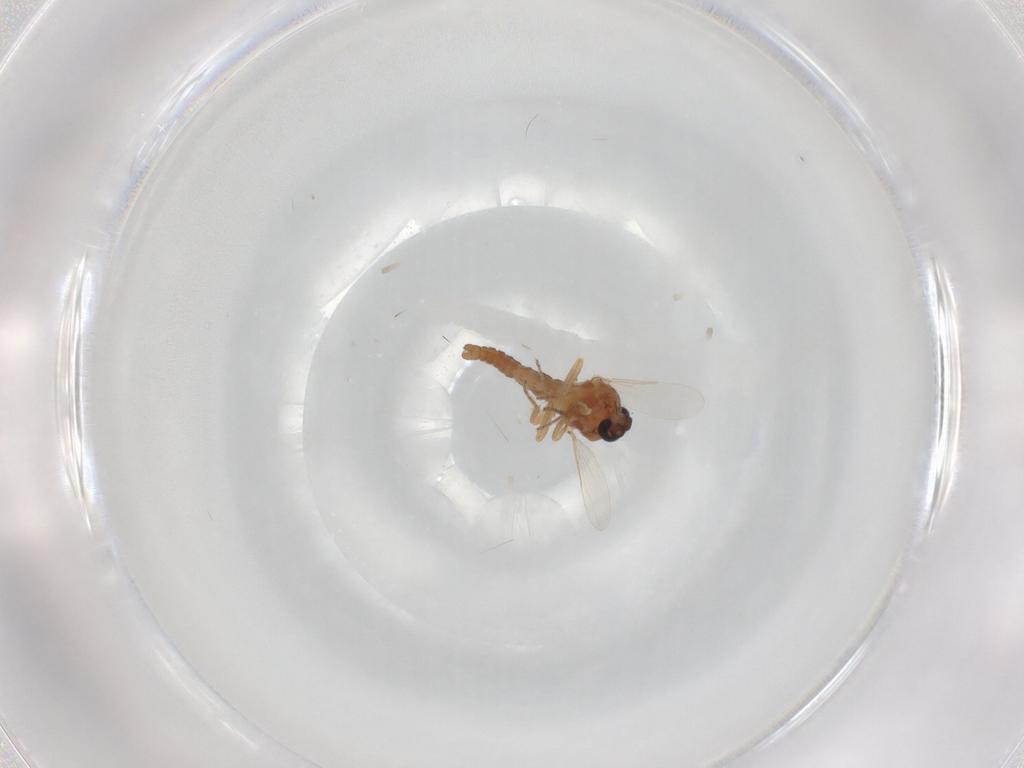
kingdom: Animalia
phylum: Arthropoda
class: Insecta
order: Diptera
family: Ceratopogonidae
